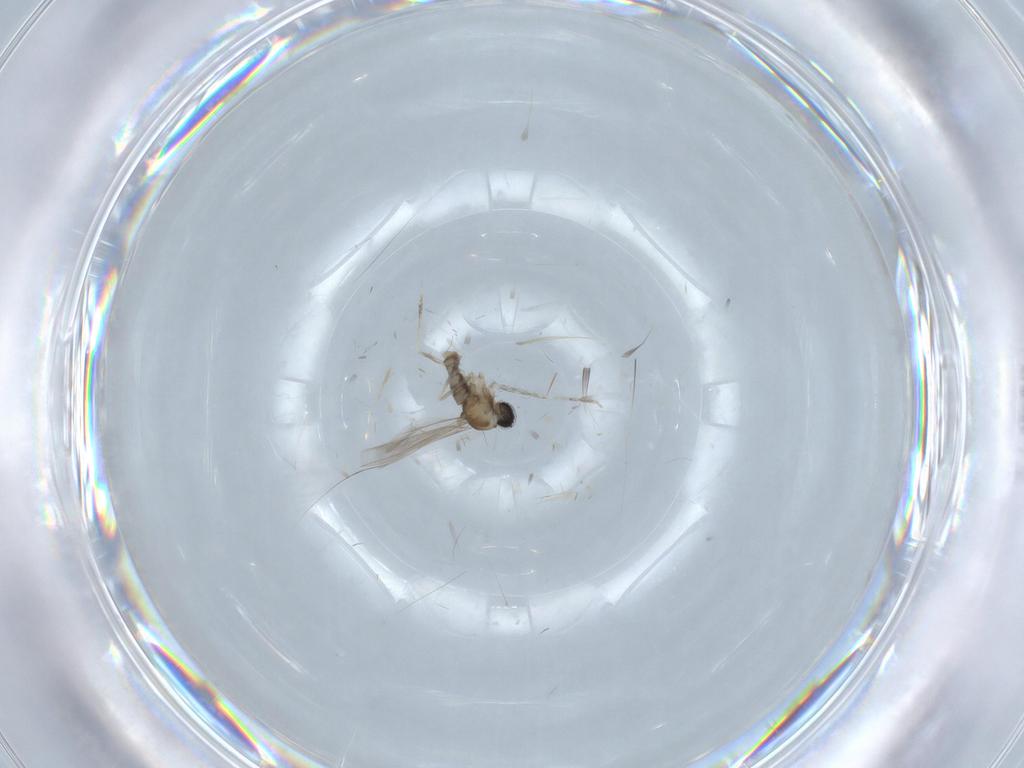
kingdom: Animalia
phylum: Arthropoda
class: Insecta
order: Diptera
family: Cecidomyiidae
